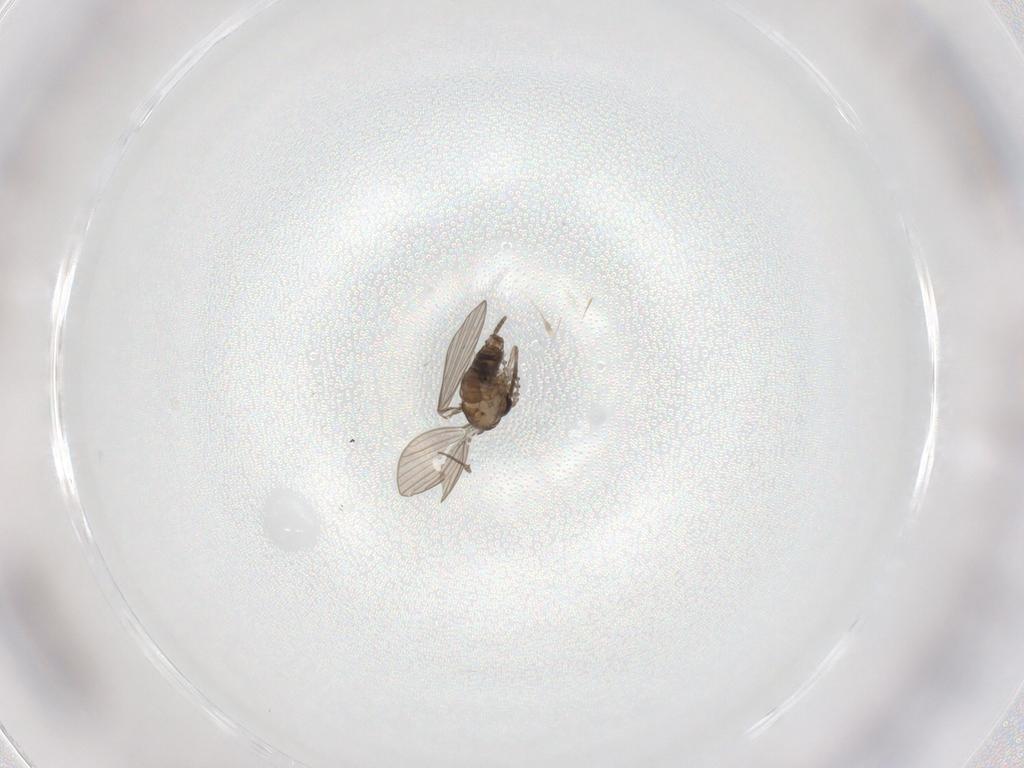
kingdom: Animalia
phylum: Arthropoda
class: Insecta
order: Diptera
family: Psychodidae
